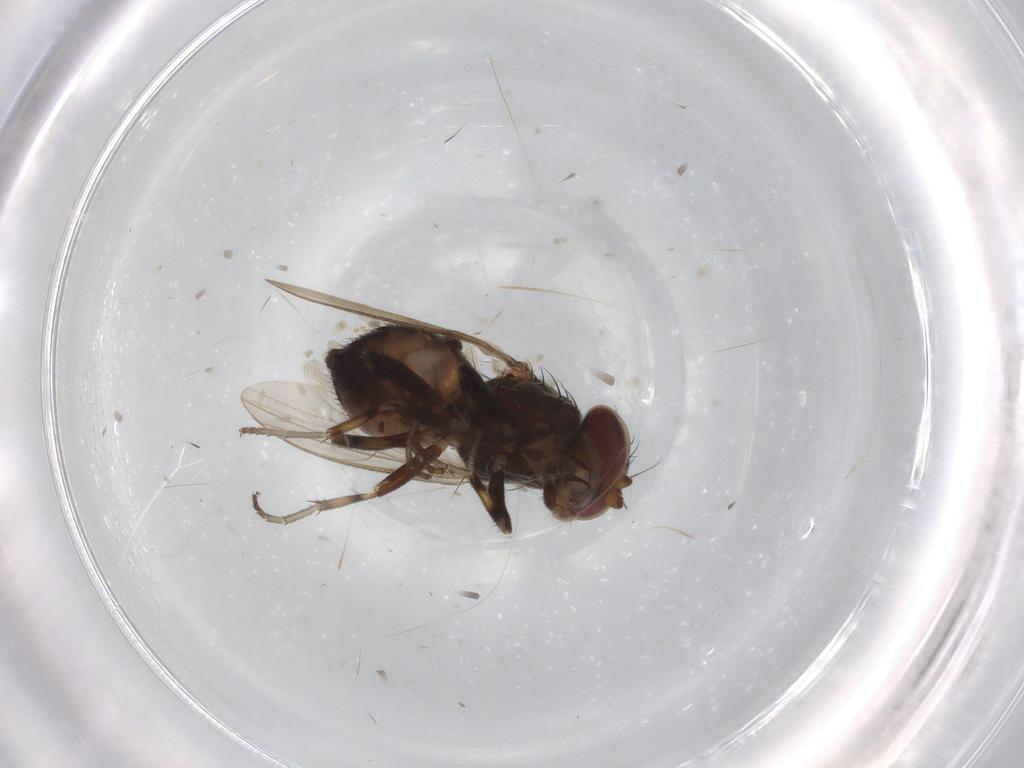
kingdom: Animalia
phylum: Arthropoda
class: Insecta
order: Diptera
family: Heleomyzidae
